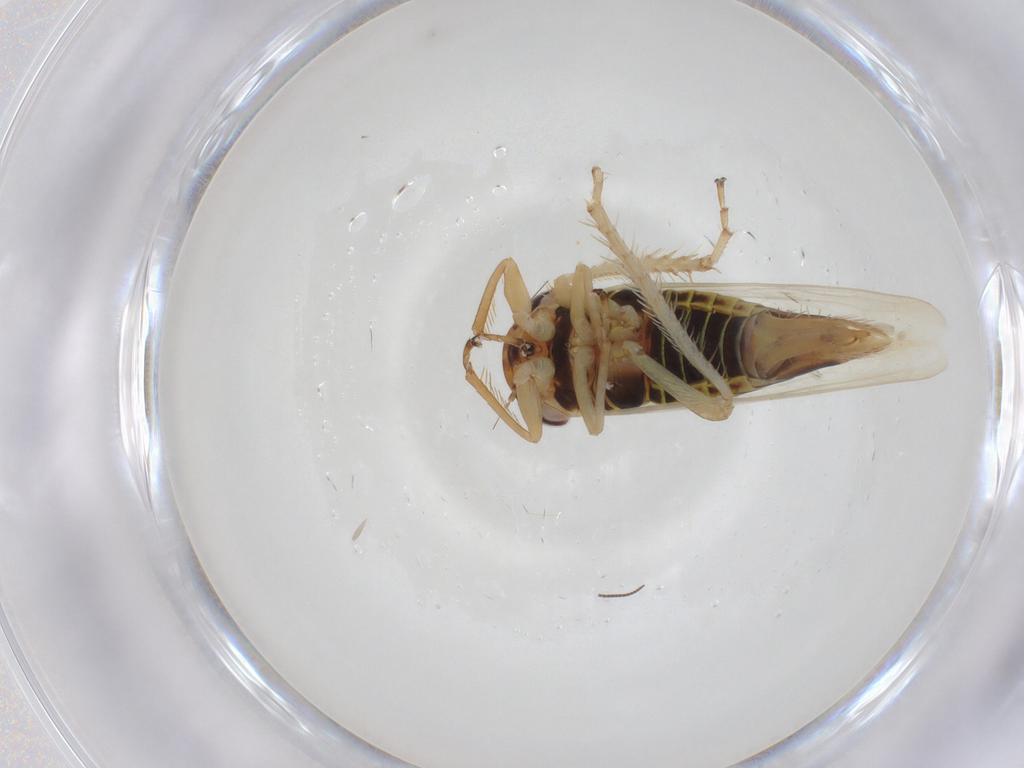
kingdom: Animalia
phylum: Arthropoda
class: Insecta
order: Hemiptera
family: Cicadellidae
